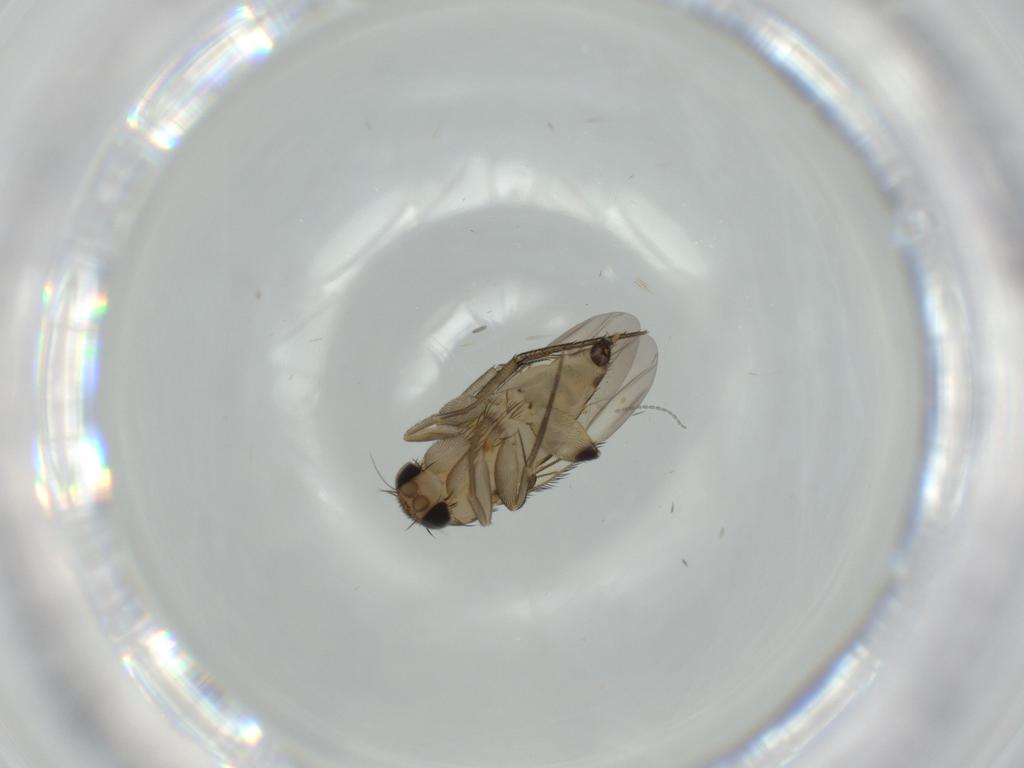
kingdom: Animalia
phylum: Arthropoda
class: Insecta
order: Diptera
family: Phoridae
